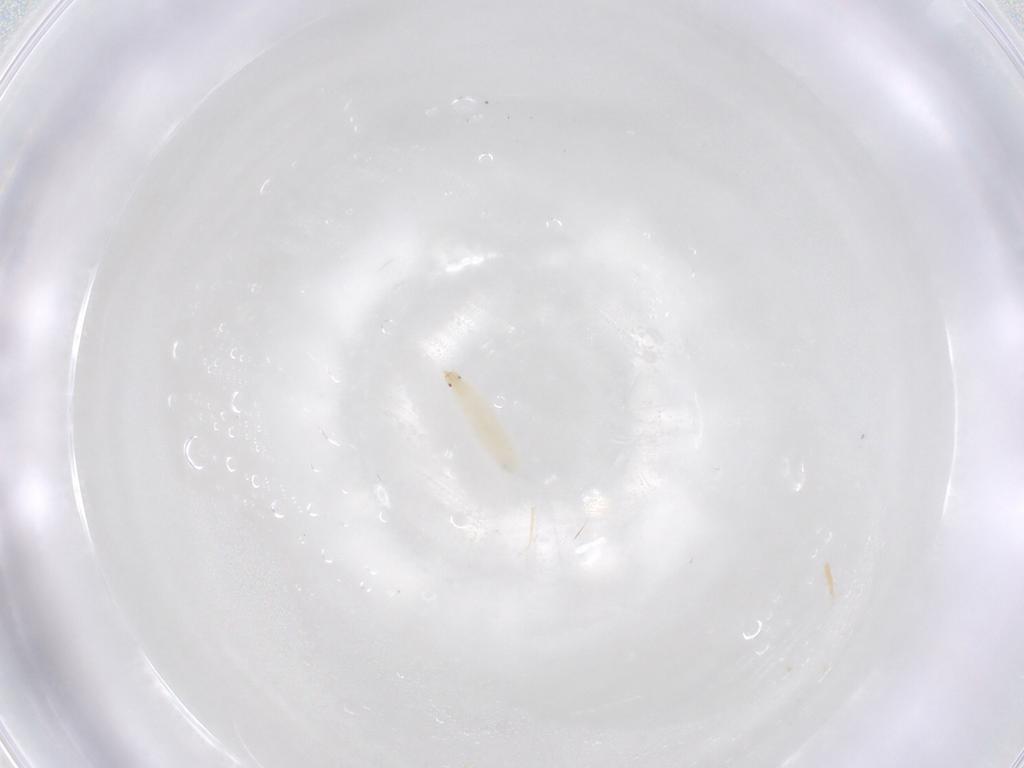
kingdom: Animalia
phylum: Arthropoda
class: Insecta
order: Diptera
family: Neriidae
